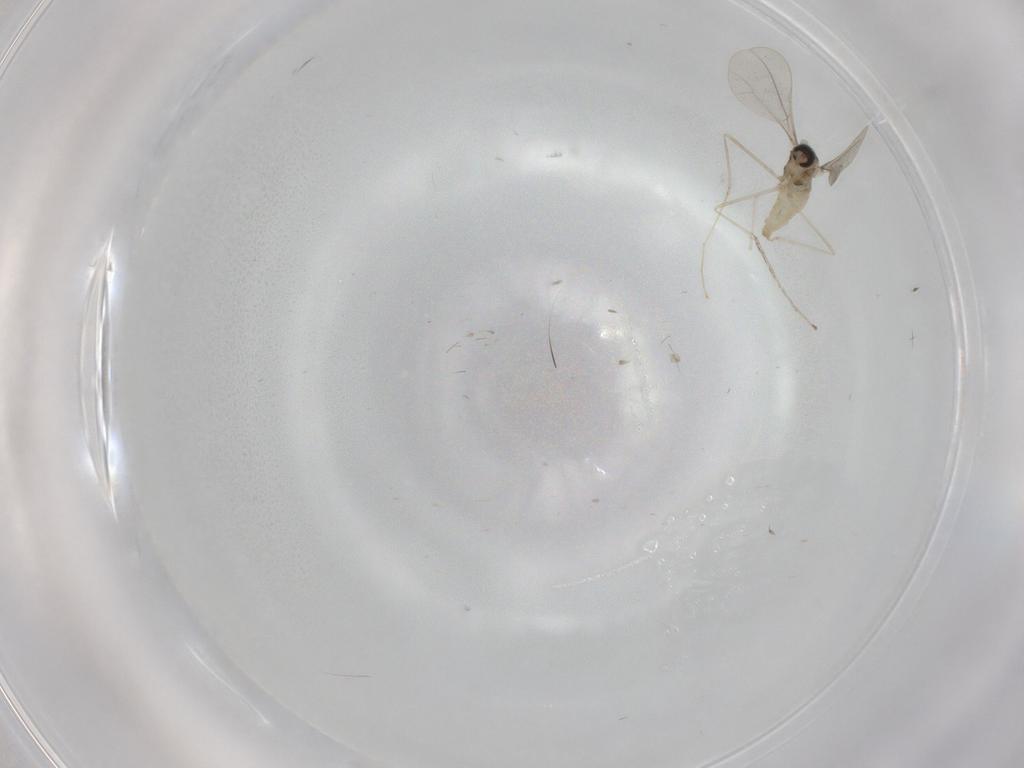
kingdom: Animalia
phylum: Arthropoda
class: Insecta
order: Diptera
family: Cecidomyiidae
